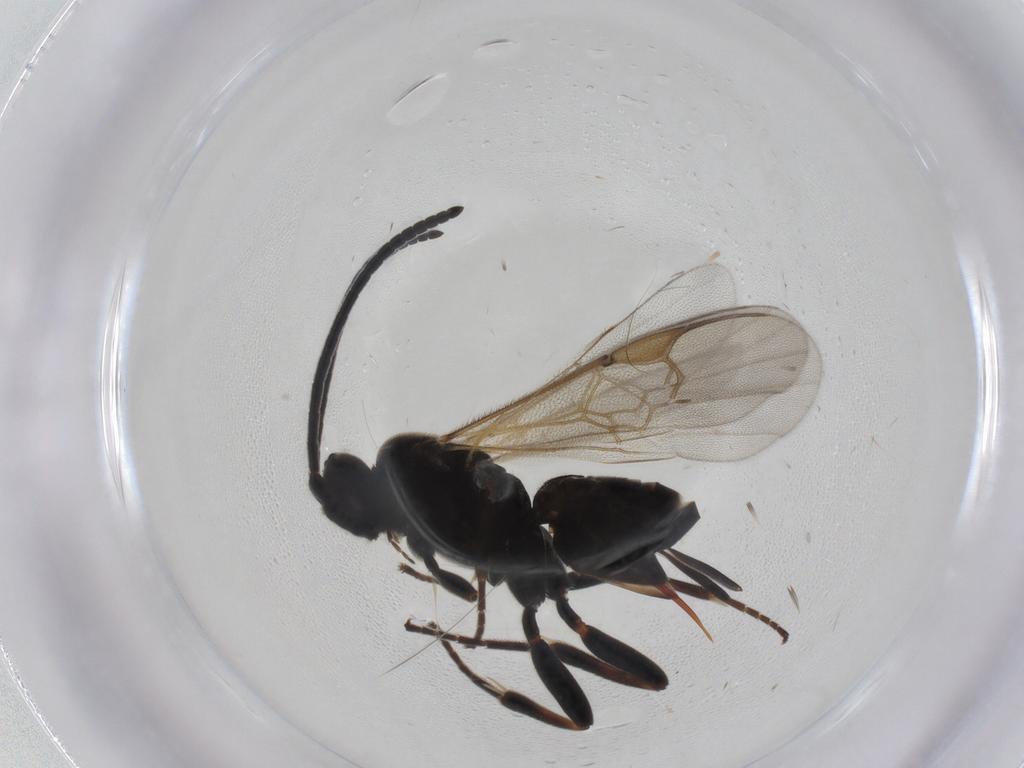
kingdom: Animalia
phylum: Arthropoda
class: Insecta
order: Hymenoptera
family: Braconidae
